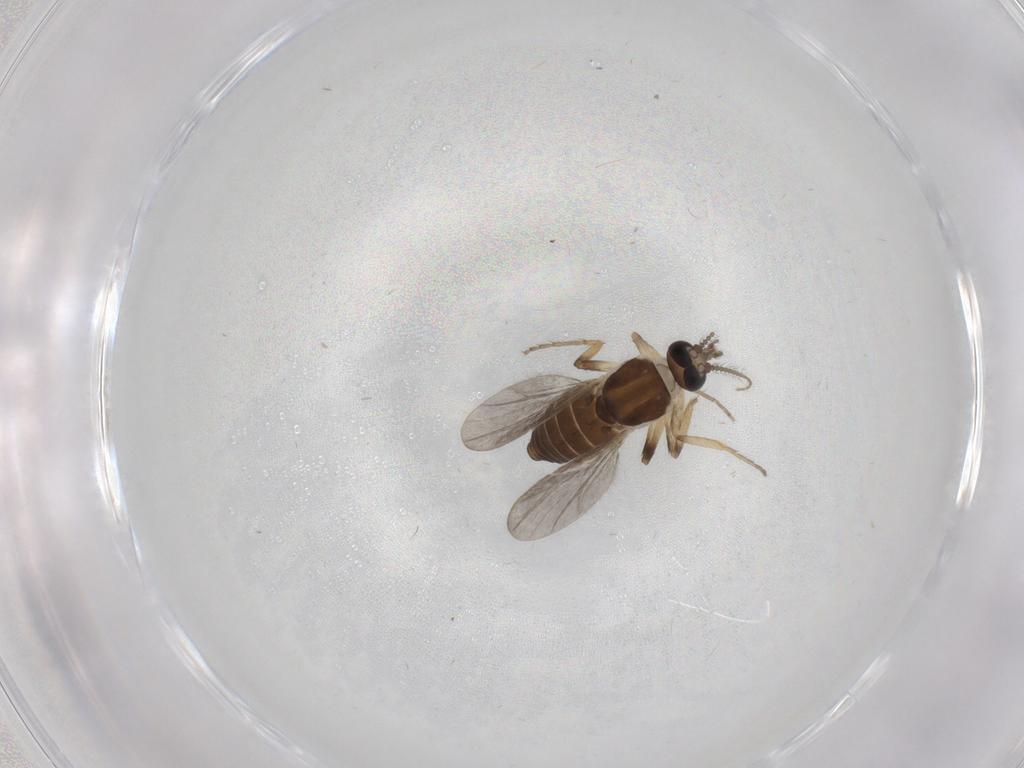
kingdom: Animalia
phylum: Arthropoda
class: Insecta
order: Diptera
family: Ceratopogonidae
